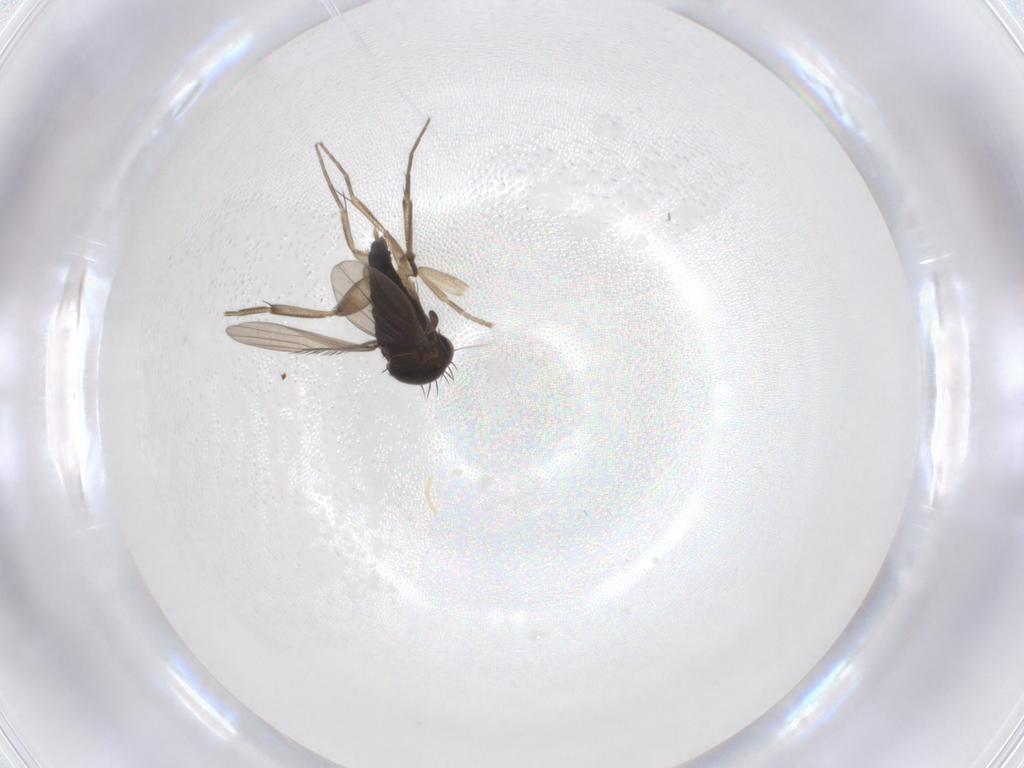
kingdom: Animalia
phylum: Arthropoda
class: Insecta
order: Diptera
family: Phoridae
